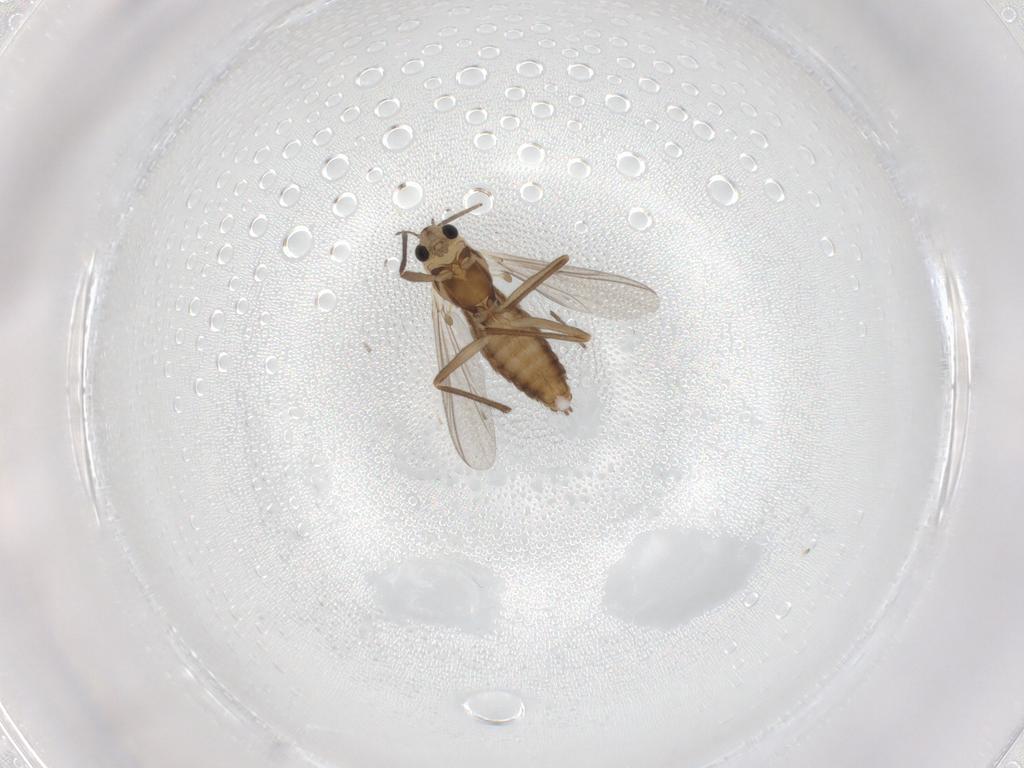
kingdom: Animalia
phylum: Arthropoda
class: Insecta
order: Diptera
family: Chironomidae
